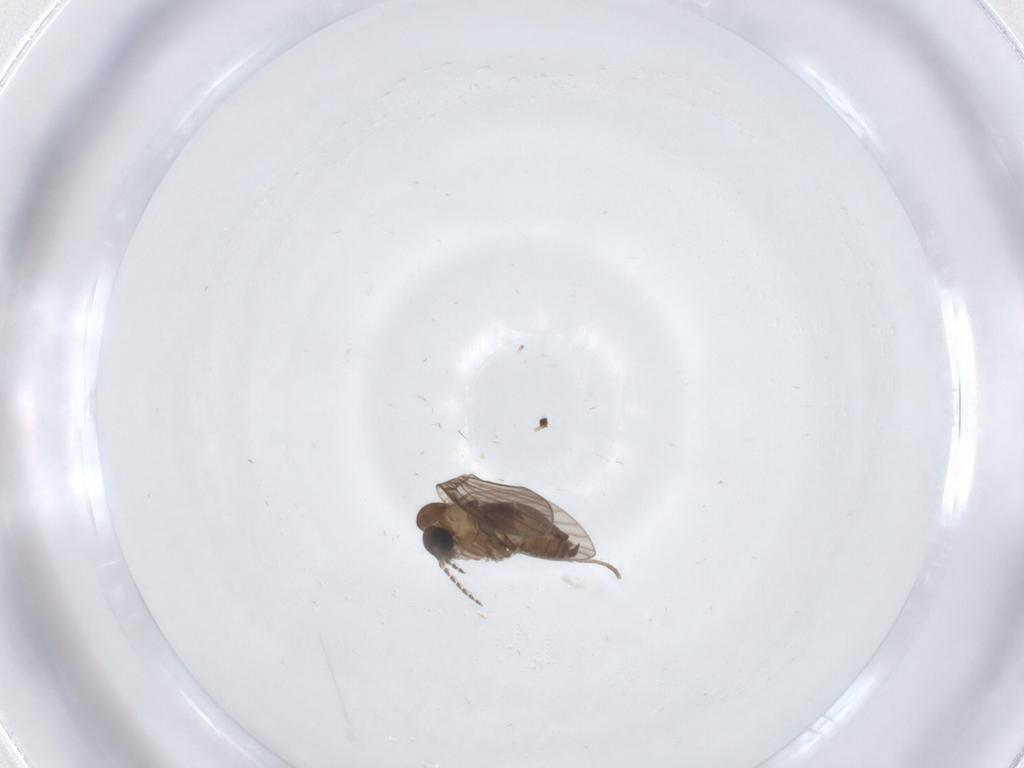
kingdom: Animalia
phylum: Arthropoda
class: Insecta
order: Diptera
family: Psychodidae
